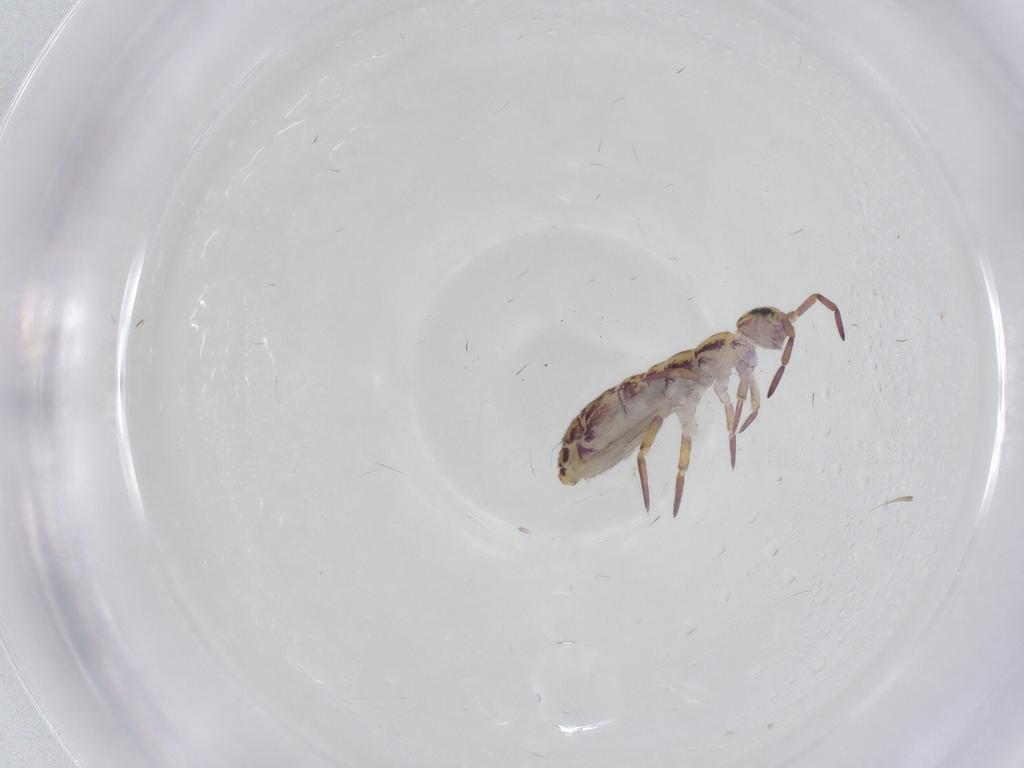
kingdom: Animalia
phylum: Arthropoda
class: Collembola
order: Entomobryomorpha
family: Isotomidae
